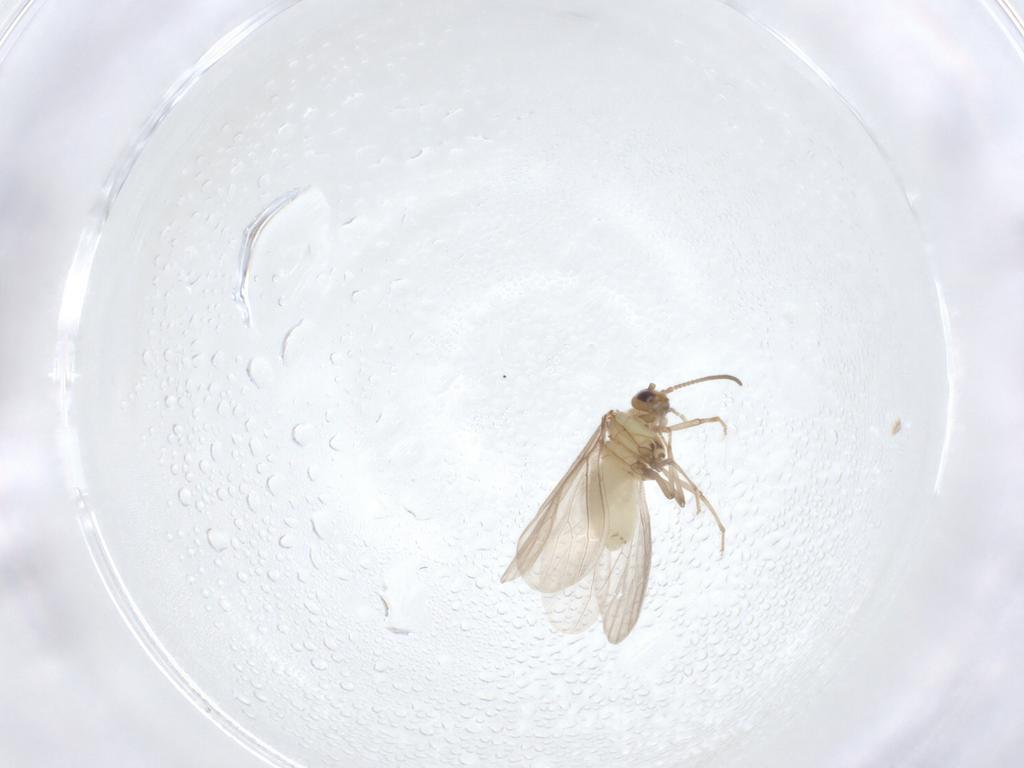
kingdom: Animalia
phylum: Arthropoda
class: Insecta
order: Neuroptera
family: Coniopterygidae
